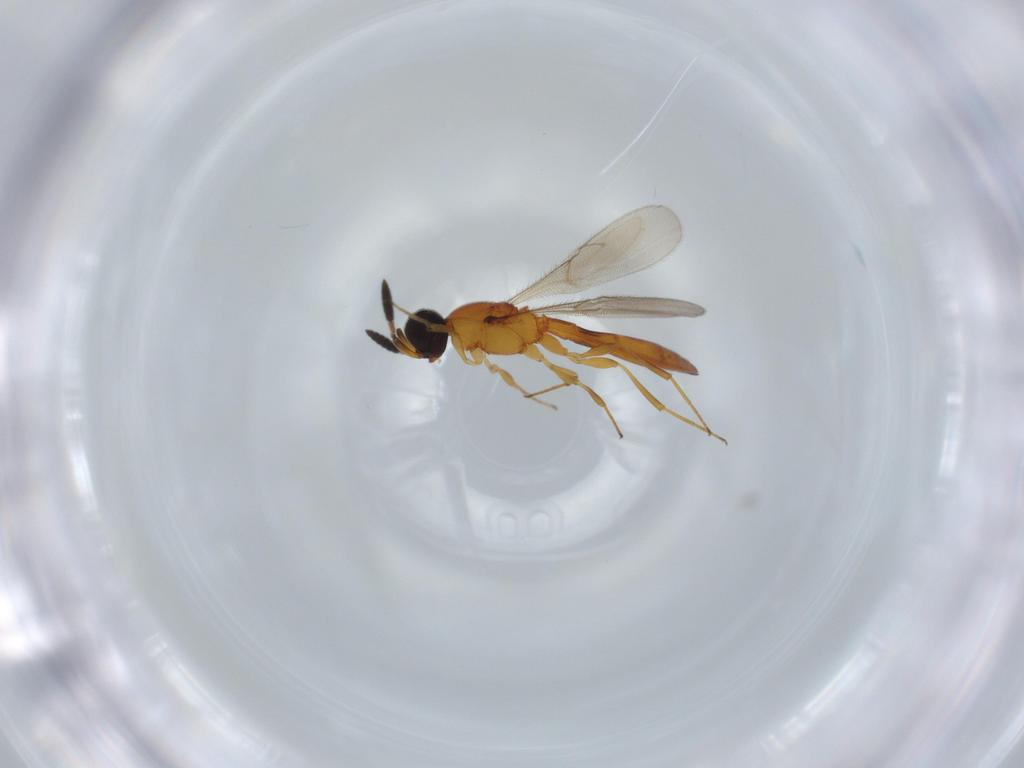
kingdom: Animalia
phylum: Arthropoda
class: Insecta
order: Hymenoptera
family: Scelionidae
